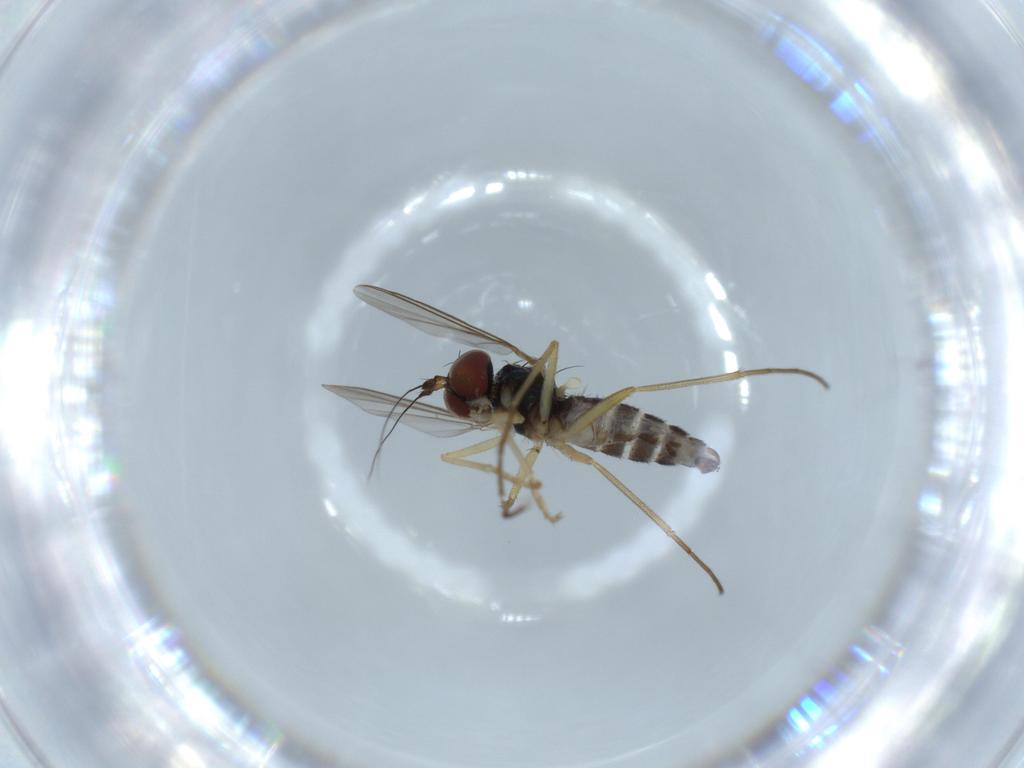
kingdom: Animalia
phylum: Arthropoda
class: Insecta
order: Diptera
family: Dolichopodidae
